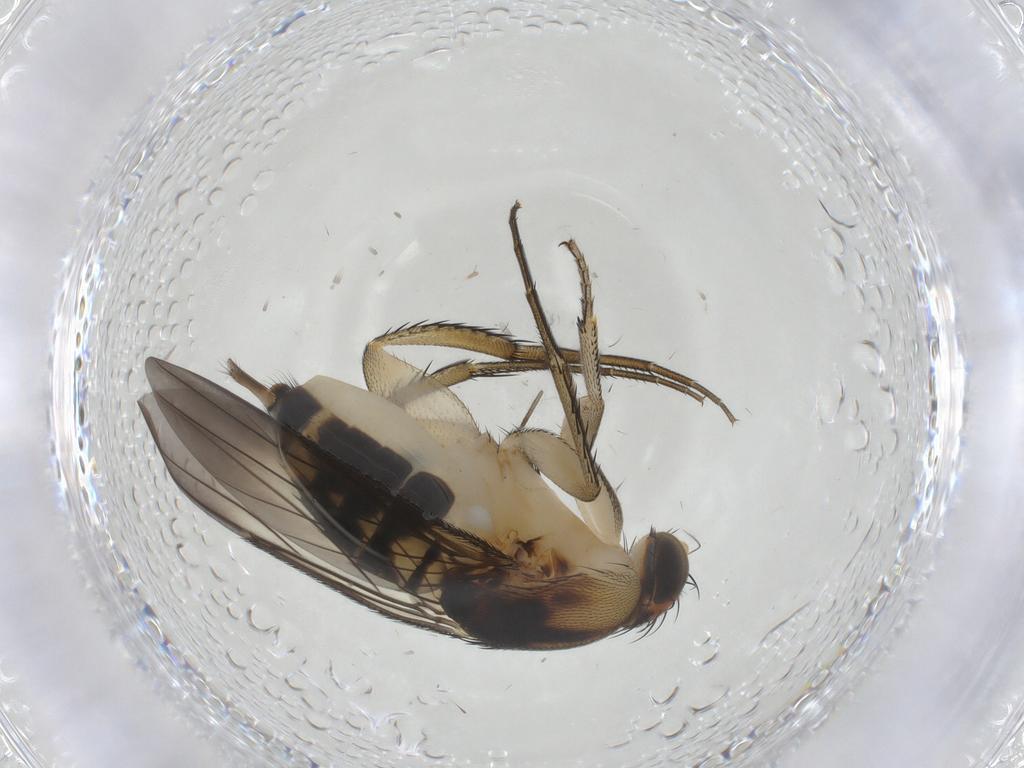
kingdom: Animalia
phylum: Arthropoda
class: Insecta
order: Diptera
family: Phoridae
